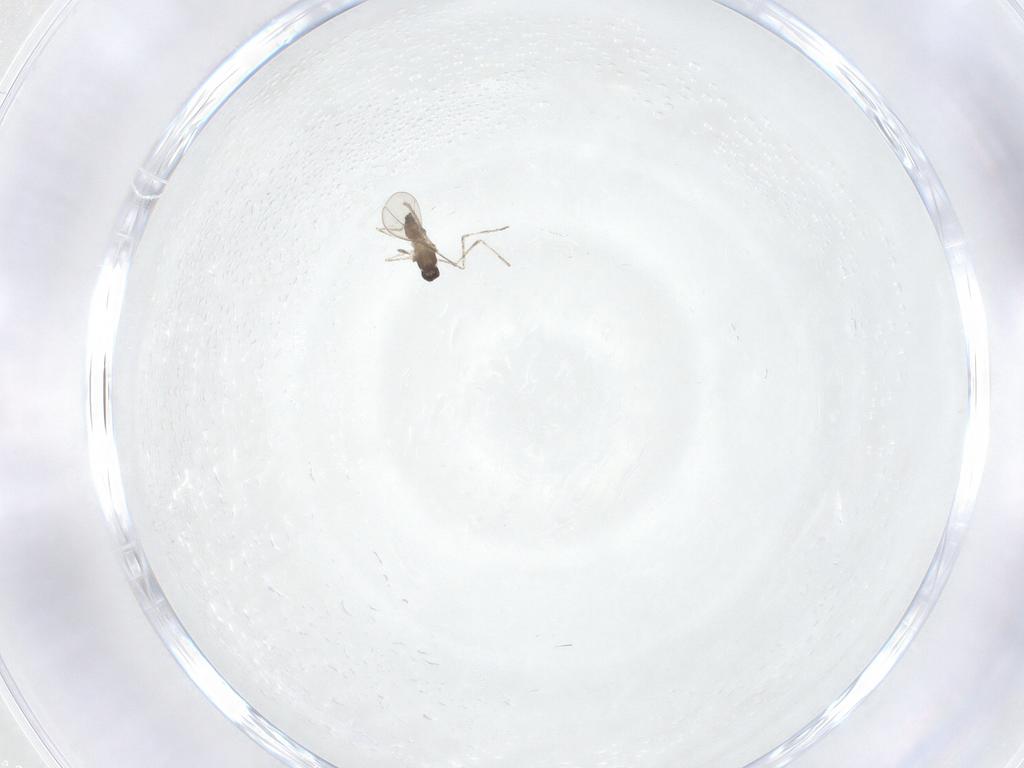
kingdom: Animalia
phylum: Arthropoda
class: Insecta
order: Diptera
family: Cecidomyiidae
